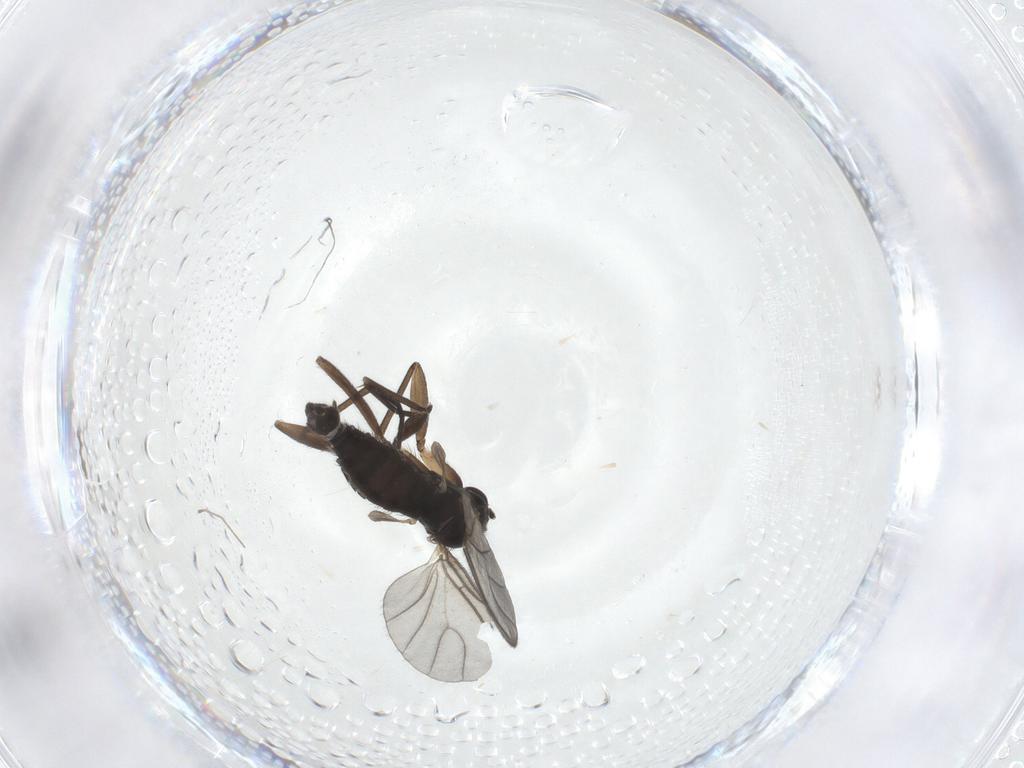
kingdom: Animalia
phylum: Arthropoda
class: Insecta
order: Diptera
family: Sciaridae
